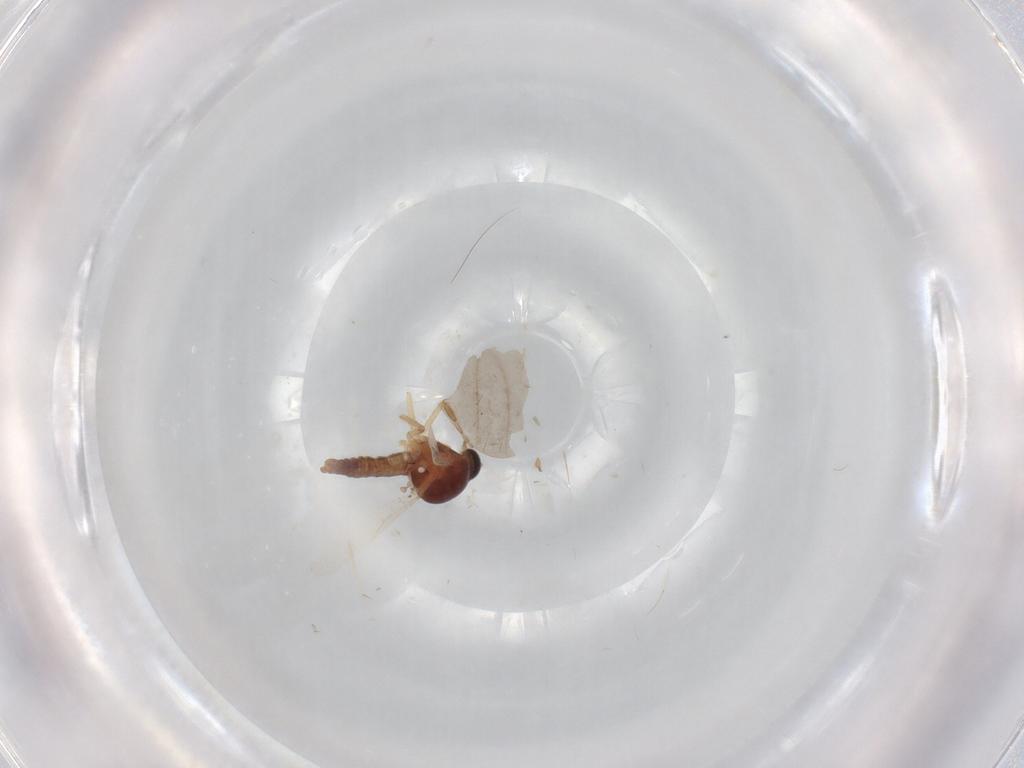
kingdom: Animalia
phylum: Arthropoda
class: Insecta
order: Diptera
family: Ceratopogonidae
